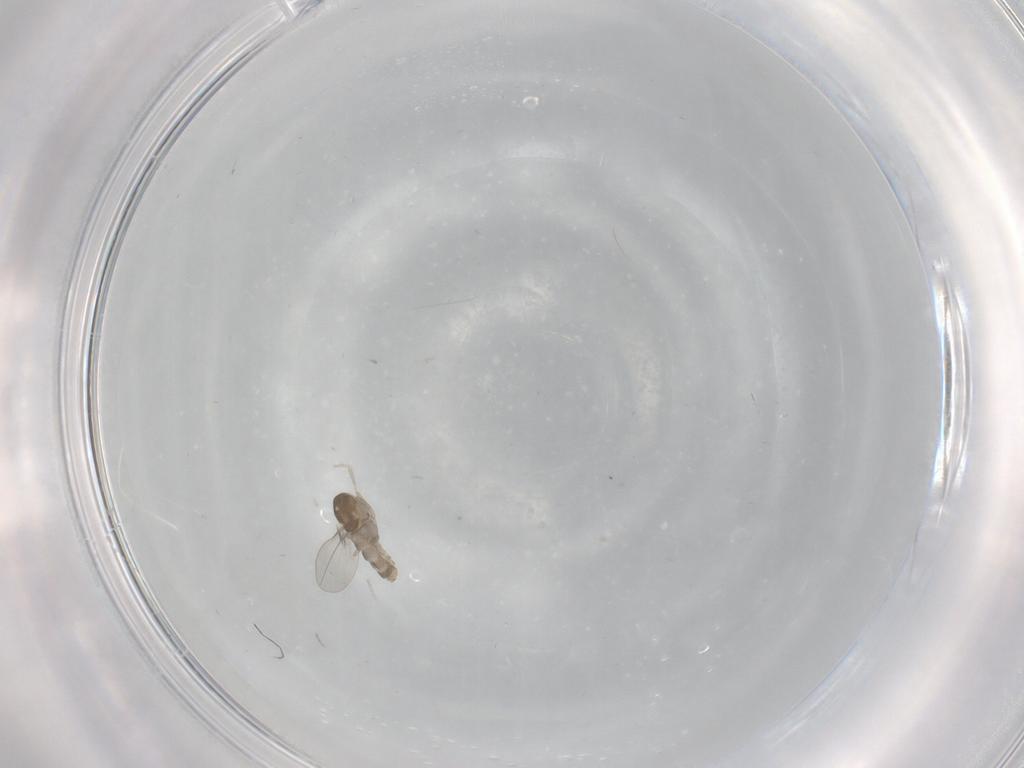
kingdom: Animalia
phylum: Arthropoda
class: Insecta
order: Diptera
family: Cecidomyiidae
